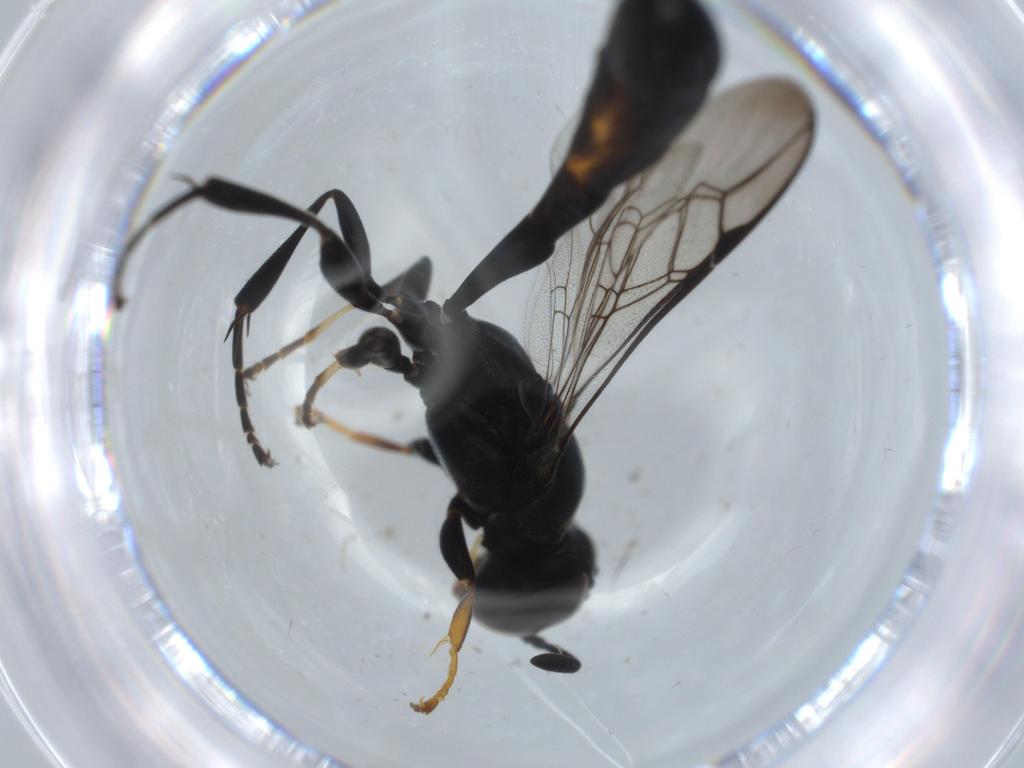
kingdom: Animalia
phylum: Arthropoda
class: Insecta
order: Hymenoptera
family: Crabronidae
